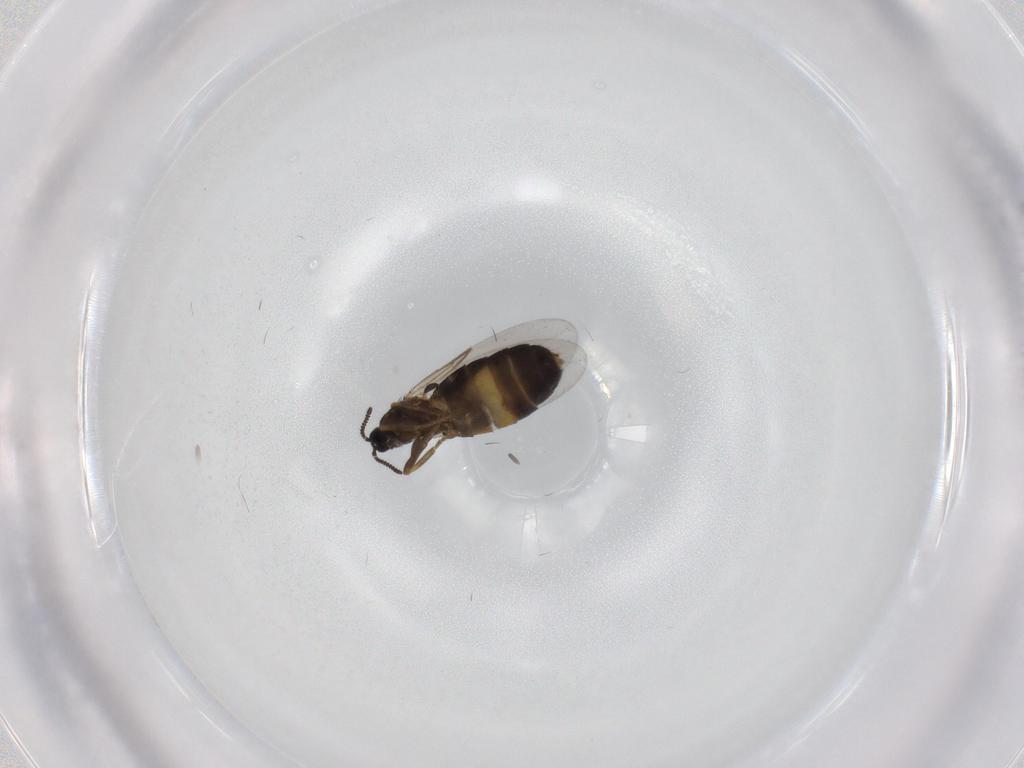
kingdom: Animalia
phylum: Arthropoda
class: Insecta
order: Diptera
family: Scatopsidae
